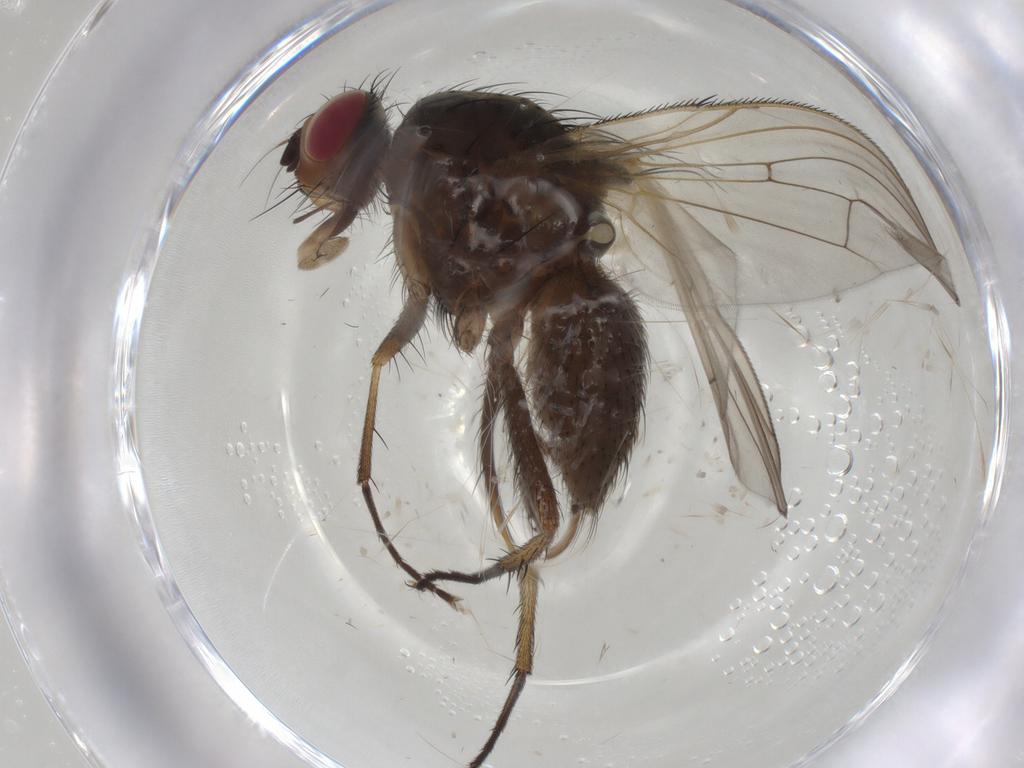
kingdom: Animalia
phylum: Arthropoda
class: Insecta
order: Diptera
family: Anthomyiidae
